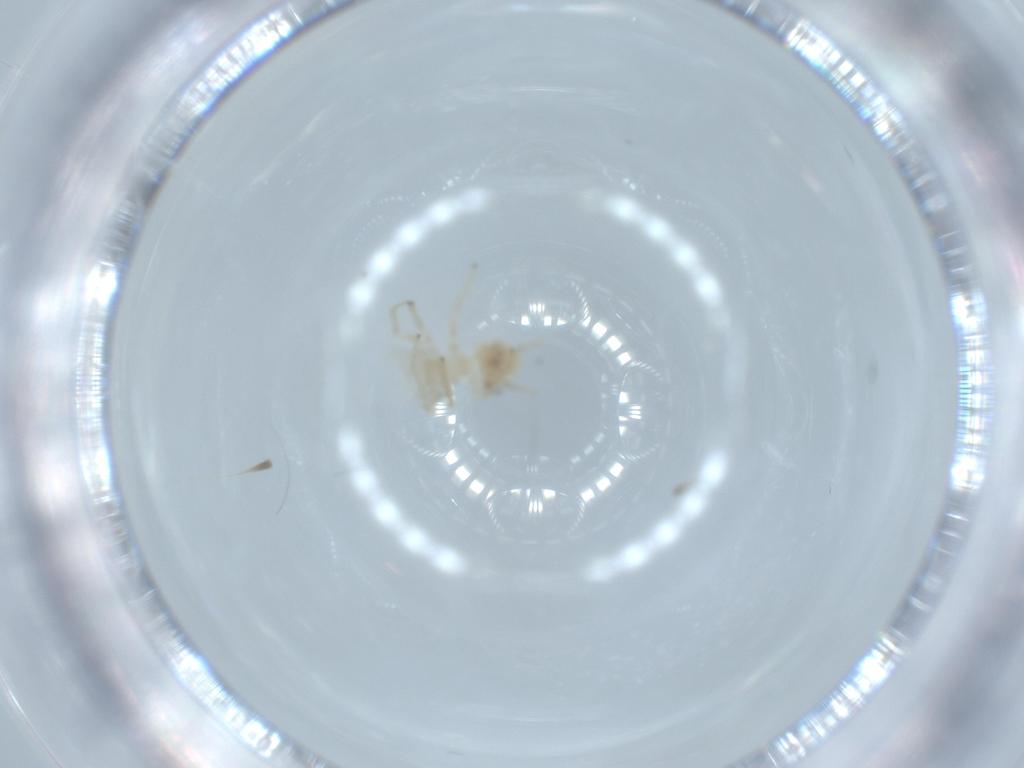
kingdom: Animalia
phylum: Arthropoda
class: Insecta
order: Psocodea
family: Caeciliusidae
